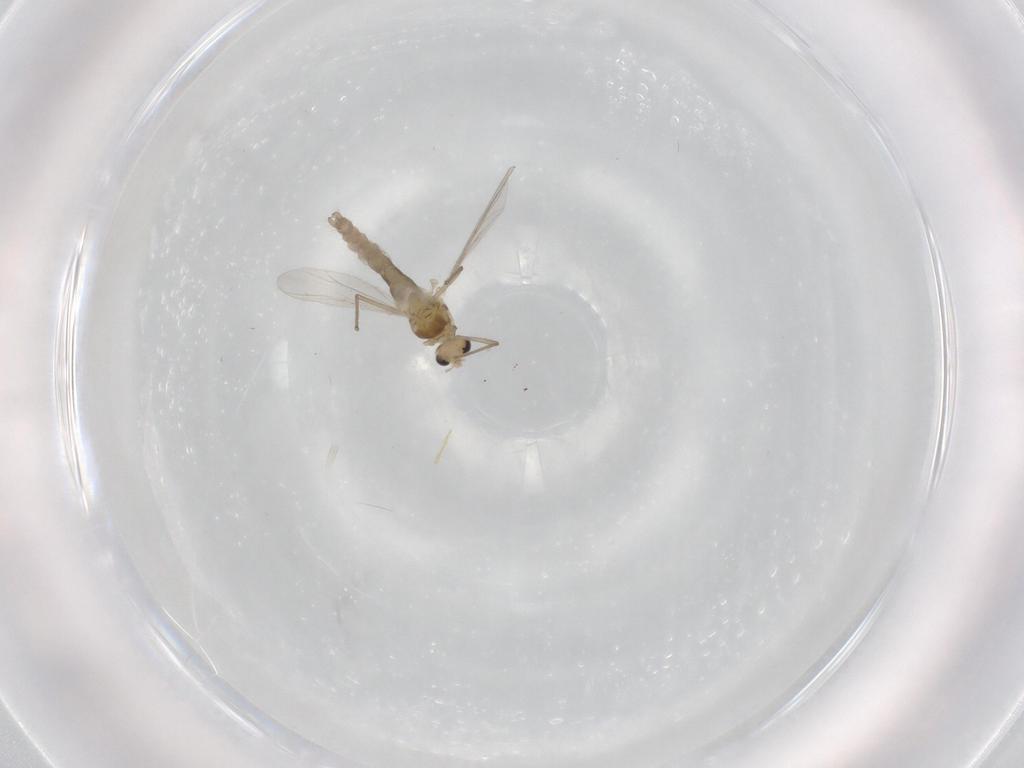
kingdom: Animalia
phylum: Arthropoda
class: Insecta
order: Diptera
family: Chironomidae
